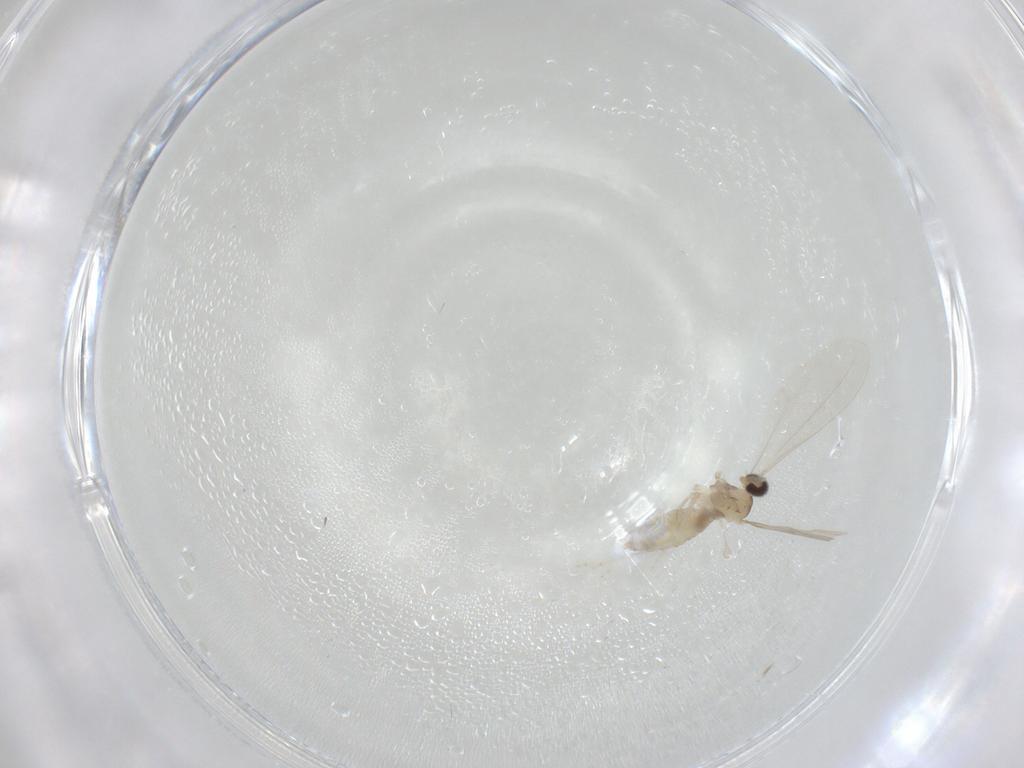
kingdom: Animalia
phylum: Arthropoda
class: Insecta
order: Diptera
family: Cecidomyiidae
